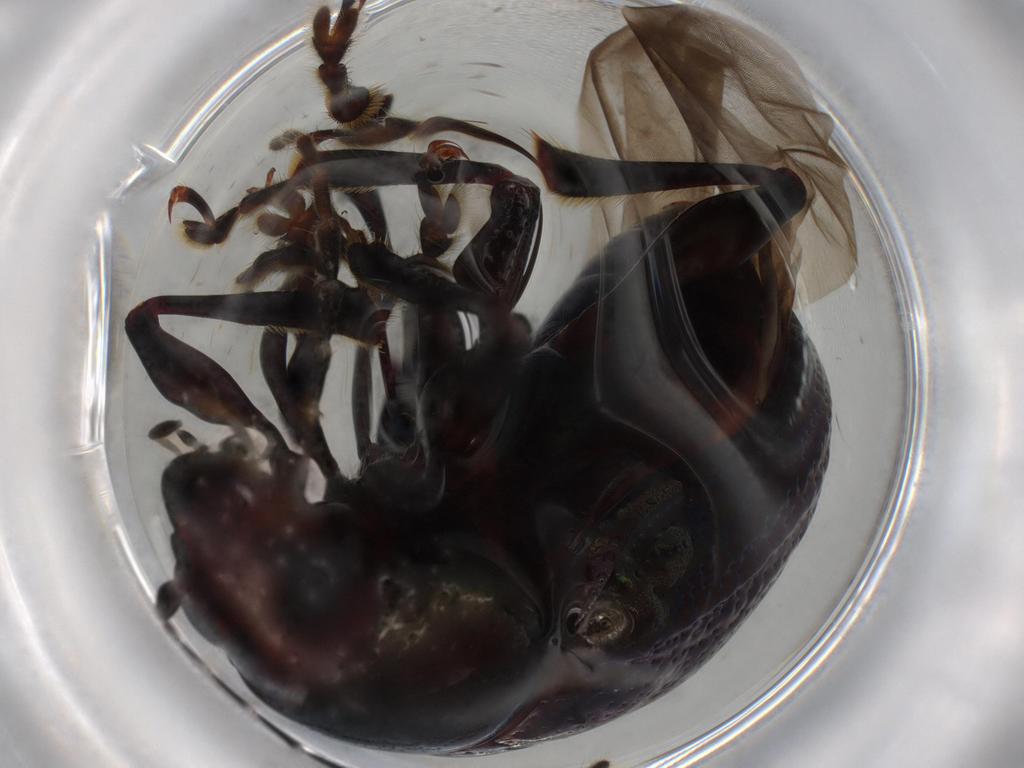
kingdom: Animalia
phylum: Arthropoda
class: Insecta
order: Coleoptera
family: Chrysomelidae
